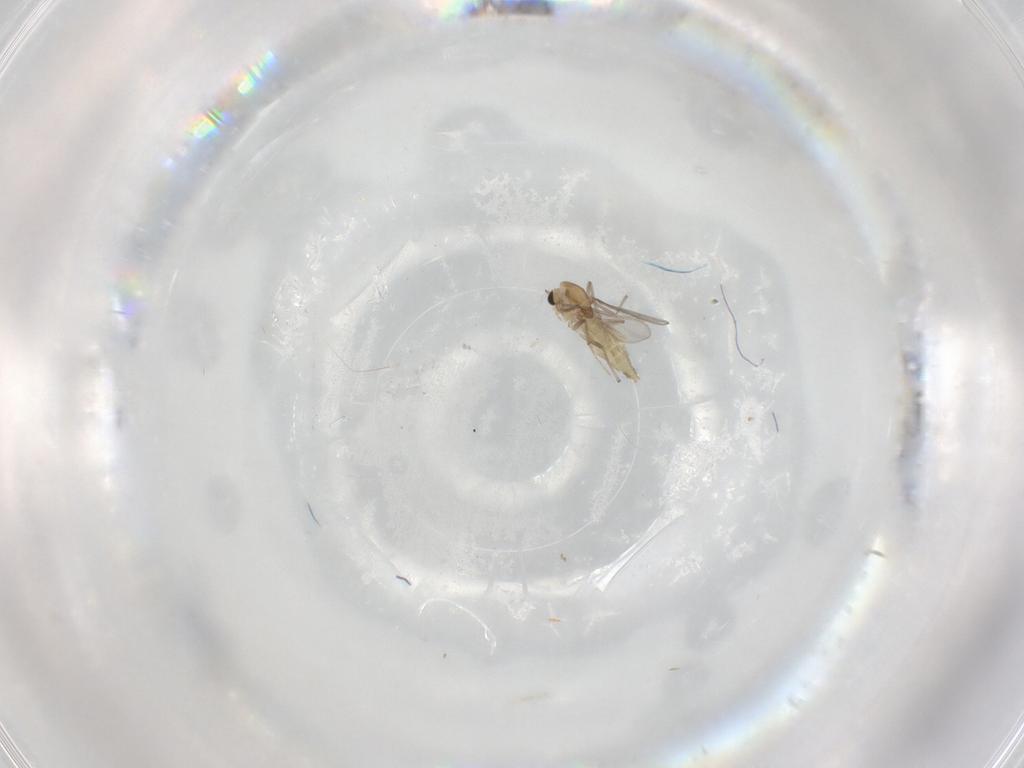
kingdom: Animalia
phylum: Arthropoda
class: Insecta
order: Diptera
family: Chironomidae
